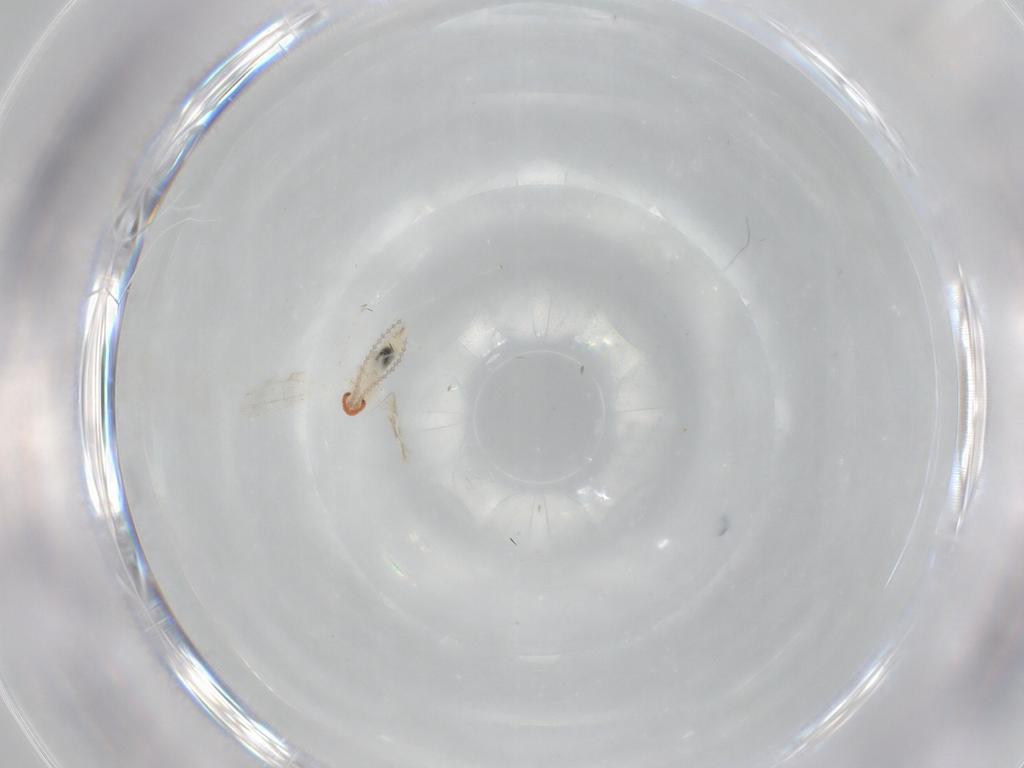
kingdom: Animalia
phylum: Arthropoda
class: Insecta
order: Diptera
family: Cecidomyiidae
